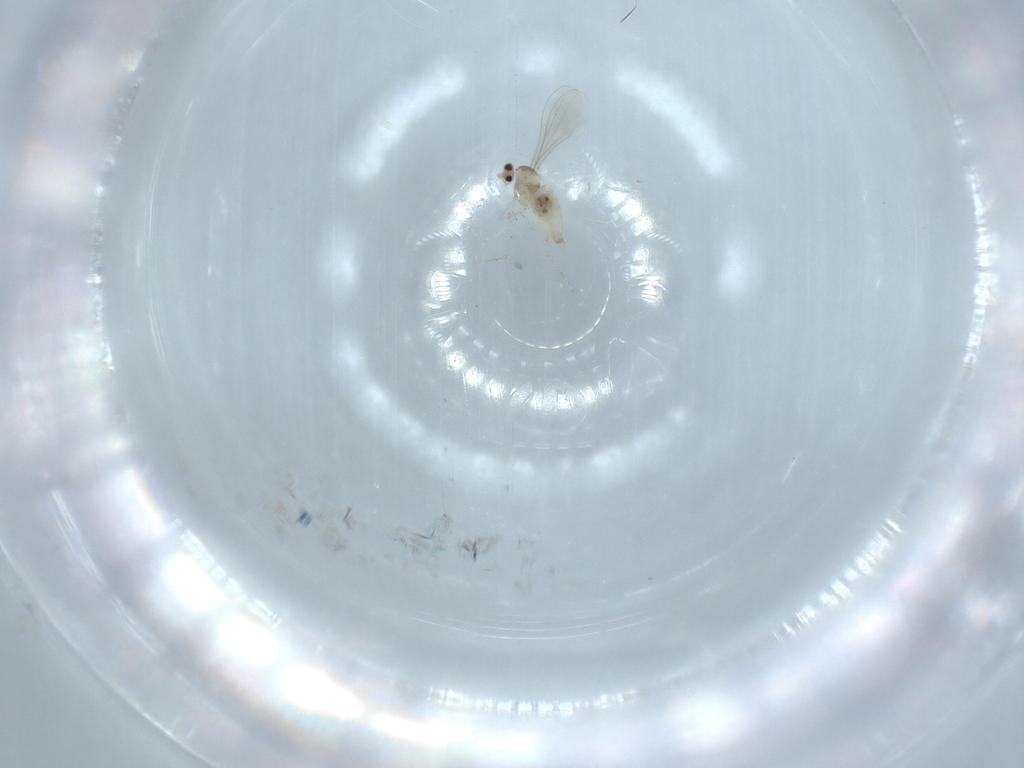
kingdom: Animalia
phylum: Arthropoda
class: Insecta
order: Diptera
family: Cecidomyiidae
